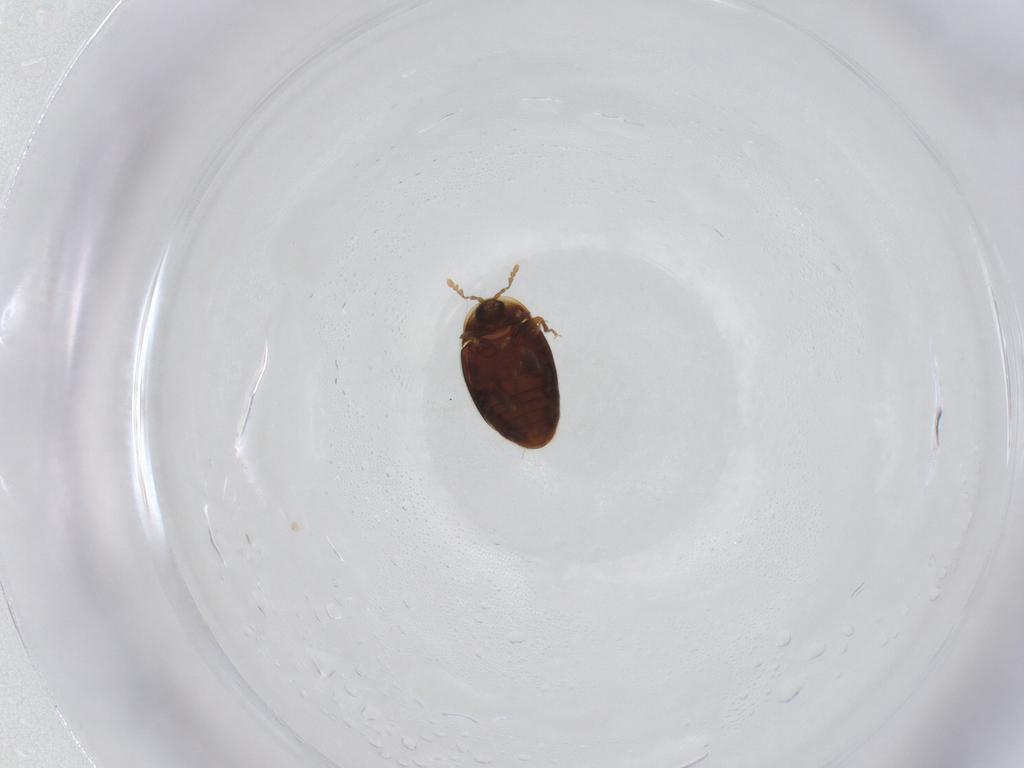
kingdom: Animalia
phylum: Arthropoda
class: Insecta
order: Coleoptera
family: Corylophidae
